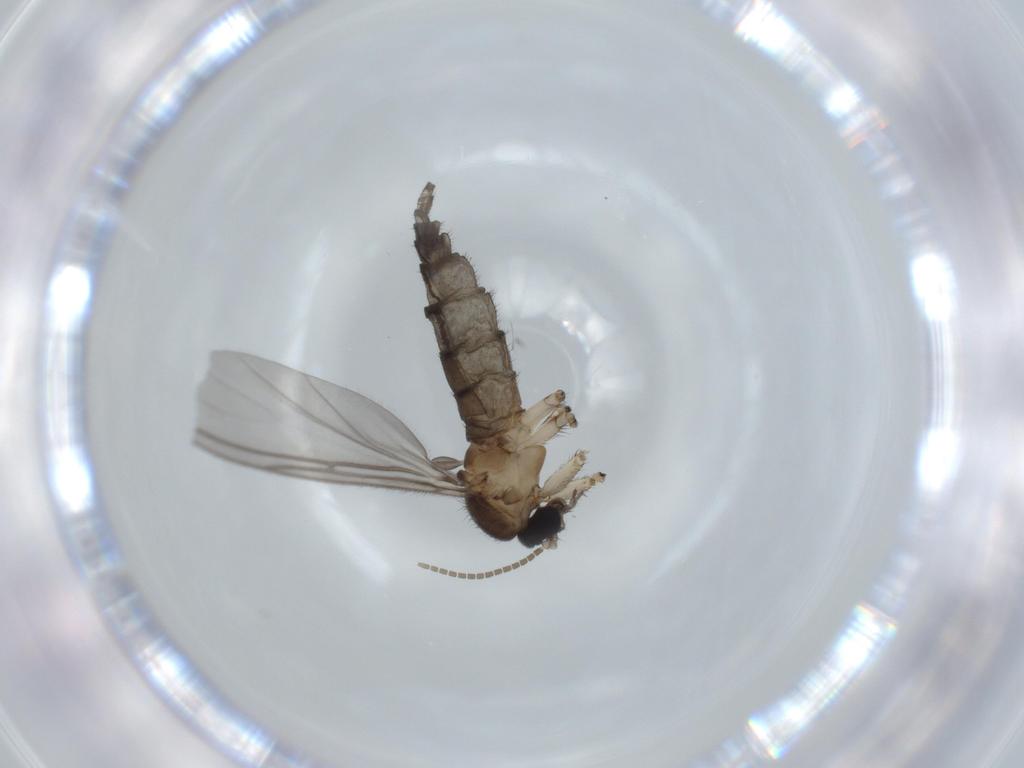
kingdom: Animalia
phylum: Arthropoda
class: Insecta
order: Diptera
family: Sciaridae
